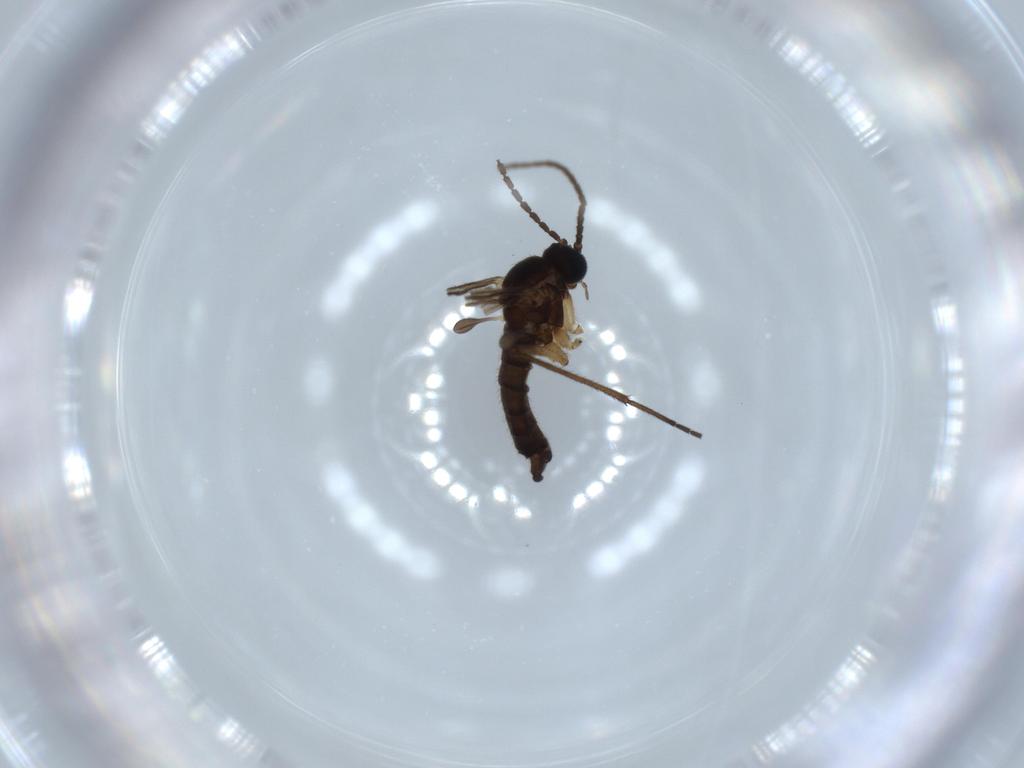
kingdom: Animalia
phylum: Arthropoda
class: Insecta
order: Diptera
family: Sciaridae
